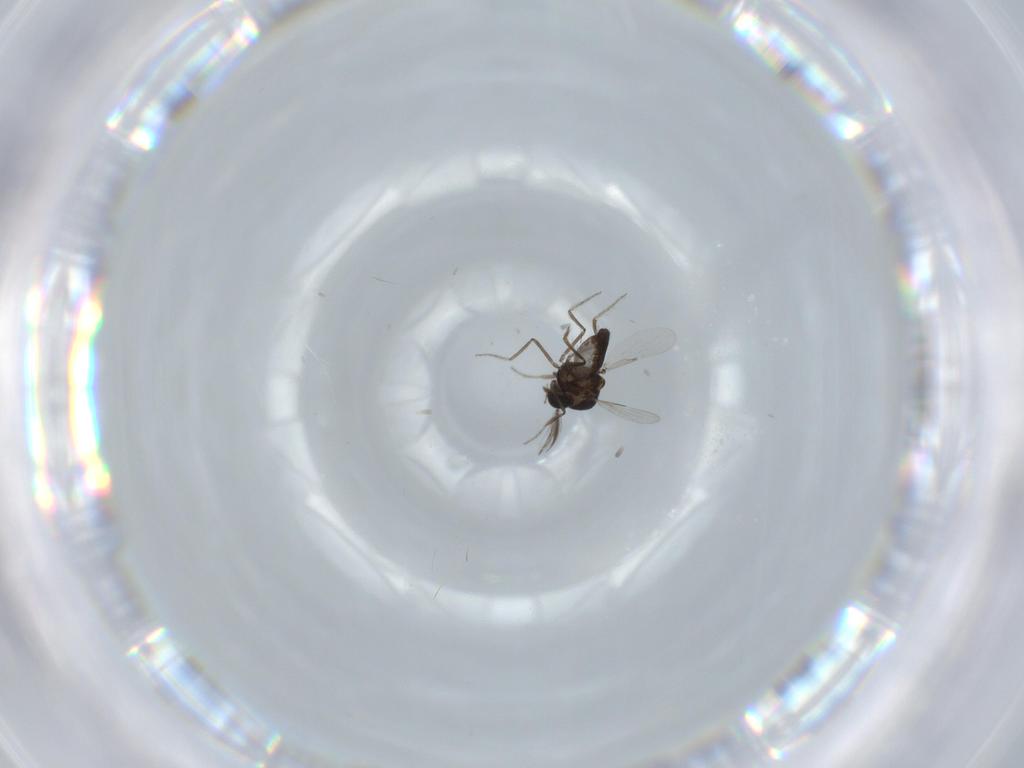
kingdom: Animalia
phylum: Arthropoda
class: Insecta
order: Diptera
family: Ceratopogonidae
